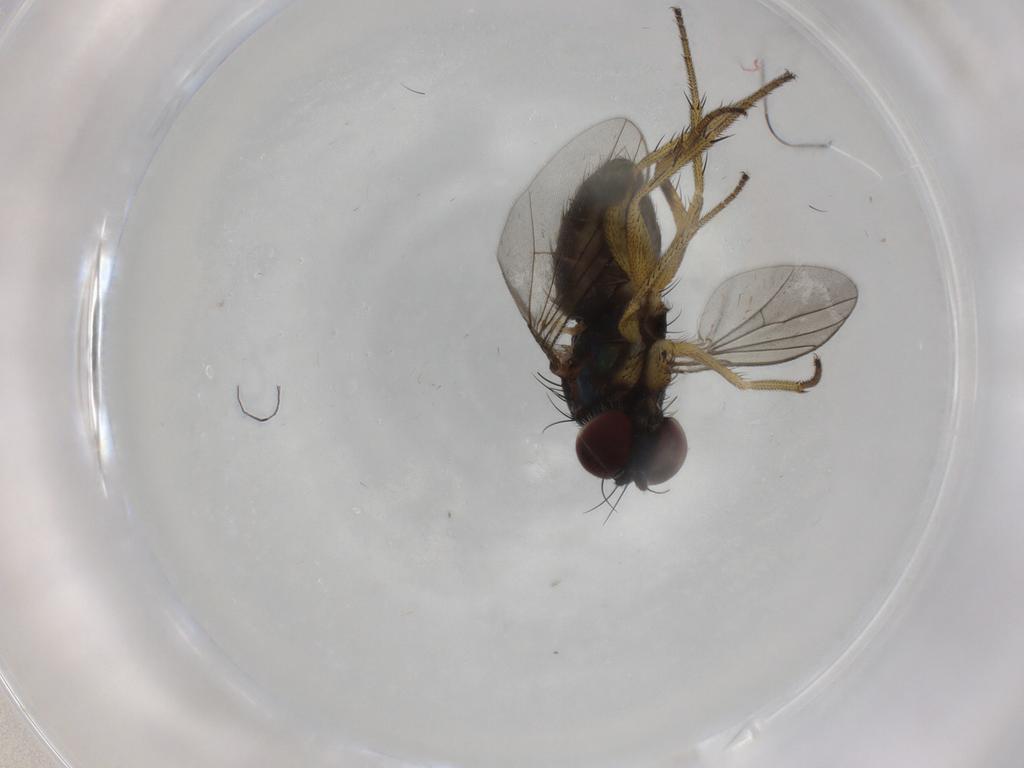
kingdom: Animalia
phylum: Arthropoda
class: Insecta
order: Diptera
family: Dolichopodidae
